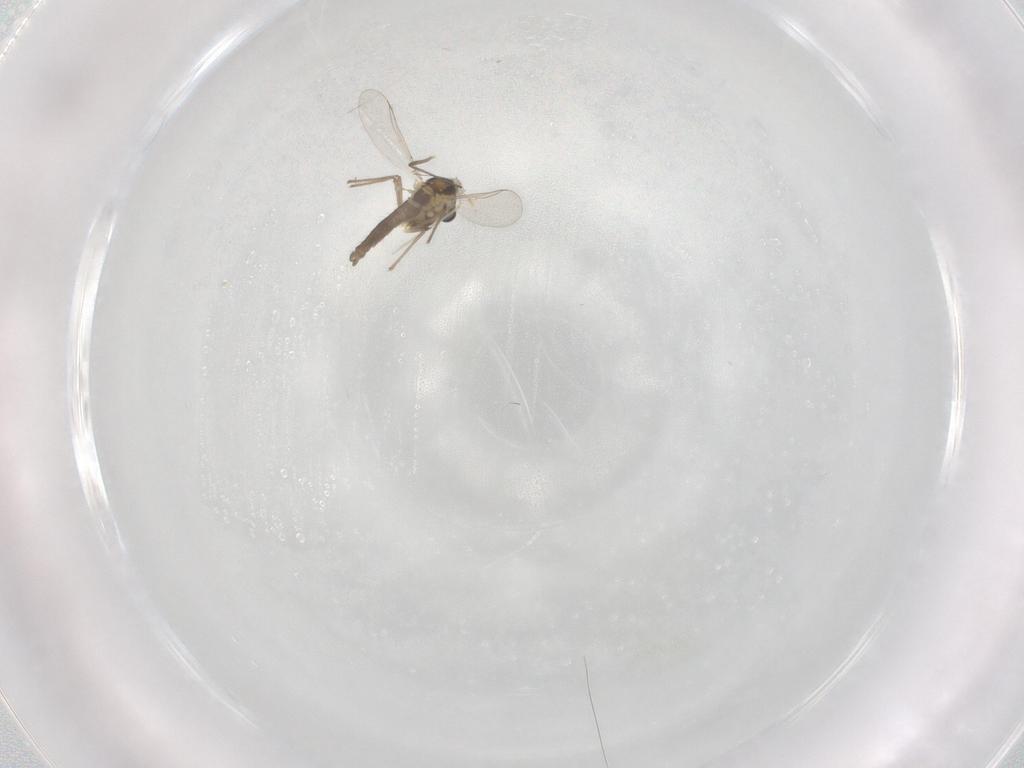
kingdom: Animalia
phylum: Arthropoda
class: Insecta
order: Diptera
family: Chironomidae
